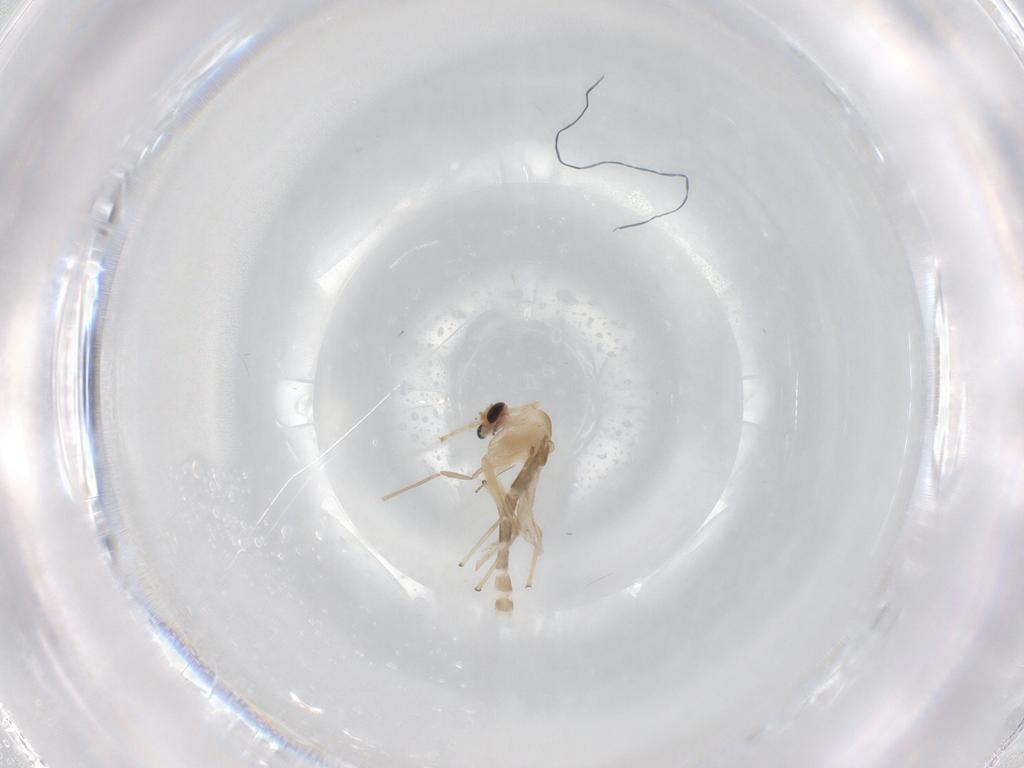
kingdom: Animalia
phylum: Arthropoda
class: Insecta
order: Diptera
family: Chironomidae
